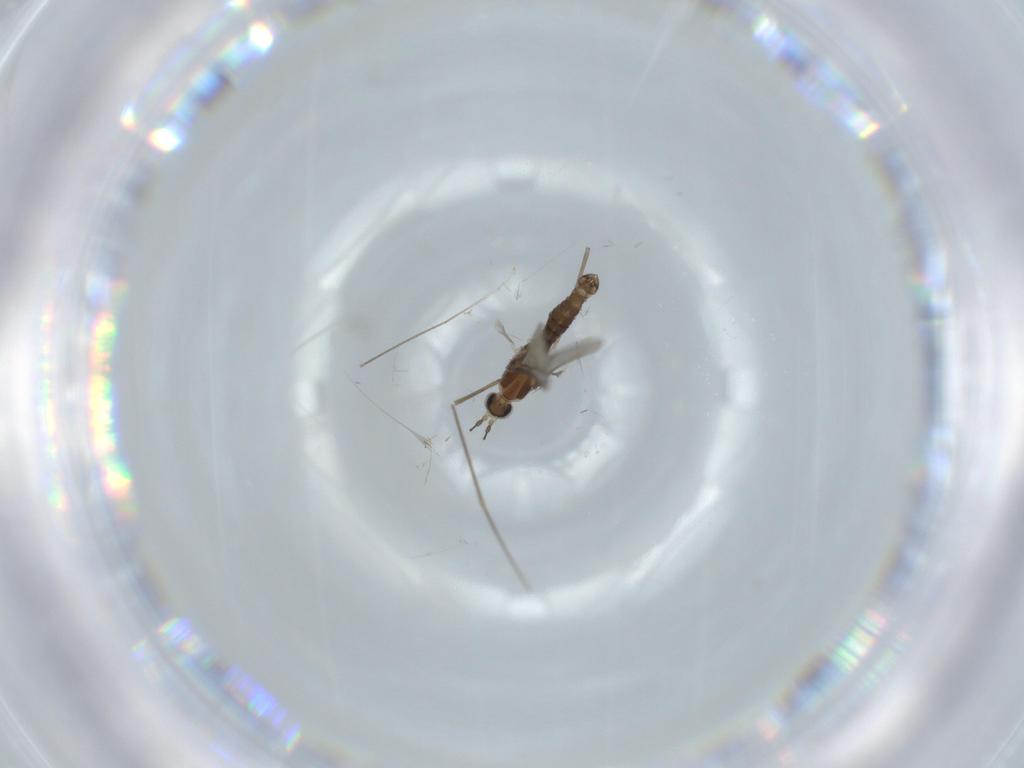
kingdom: Animalia
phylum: Arthropoda
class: Insecta
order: Diptera
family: Cecidomyiidae
